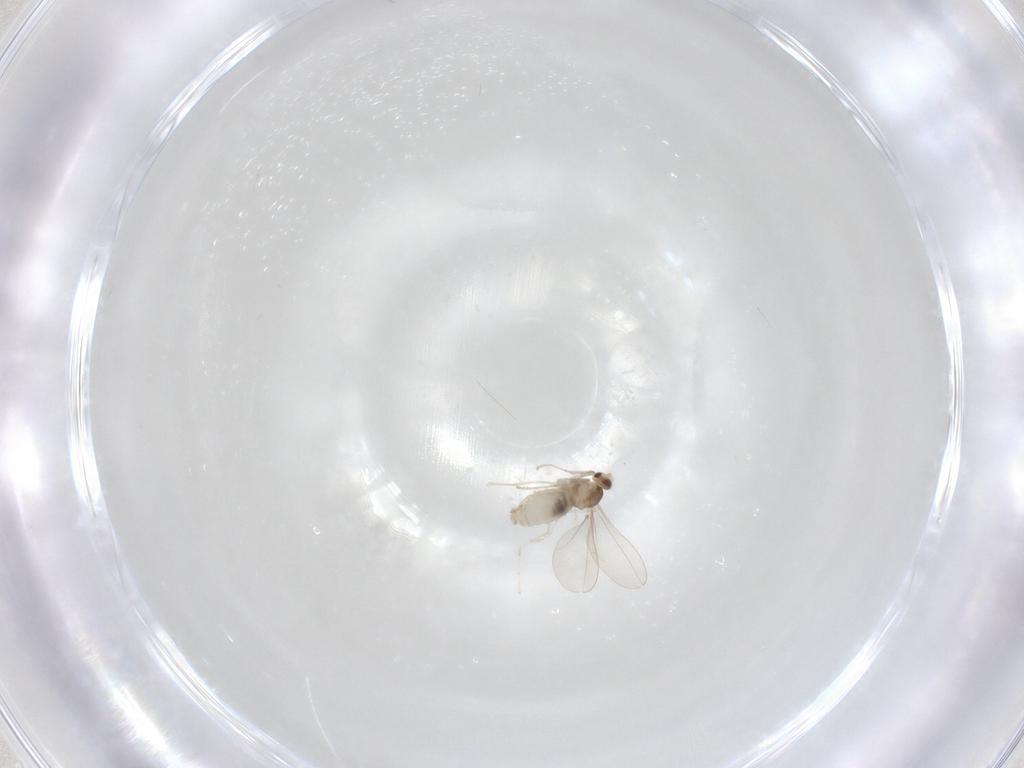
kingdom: Animalia
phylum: Arthropoda
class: Insecta
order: Diptera
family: Cecidomyiidae
